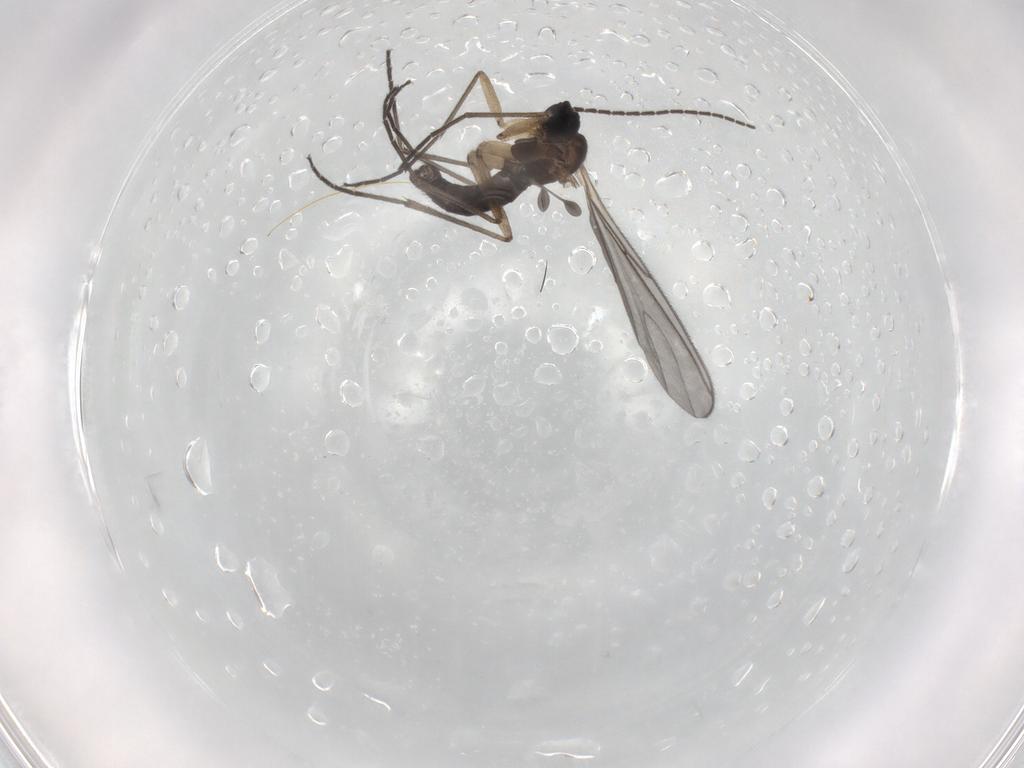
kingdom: Animalia
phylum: Arthropoda
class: Insecta
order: Diptera
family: Sciaridae
